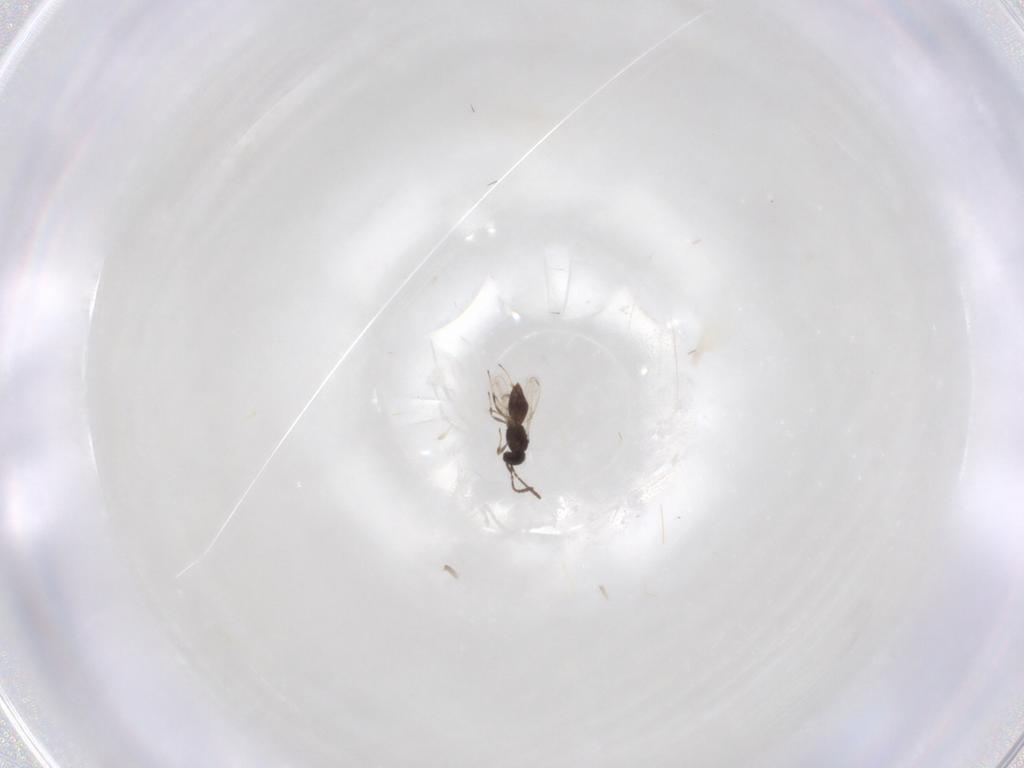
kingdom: Animalia
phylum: Arthropoda
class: Insecta
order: Hymenoptera
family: Scelionidae
